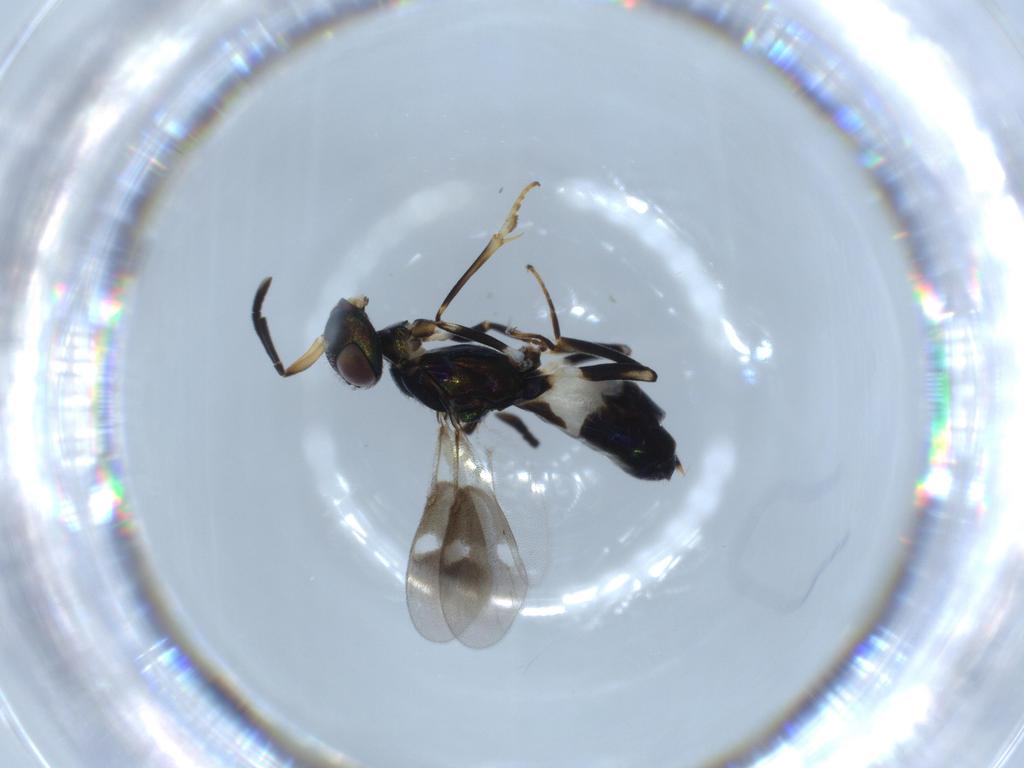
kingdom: Animalia
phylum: Arthropoda
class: Insecta
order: Hymenoptera
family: Eupelmidae
